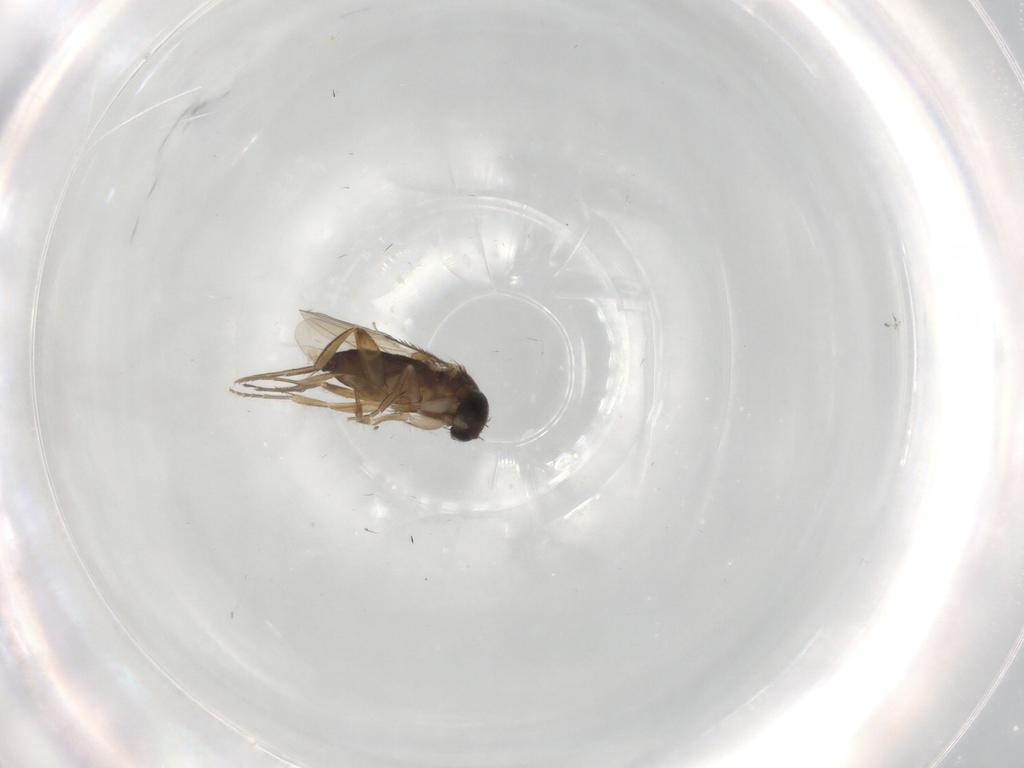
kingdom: Animalia
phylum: Arthropoda
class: Insecta
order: Diptera
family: Phoridae
